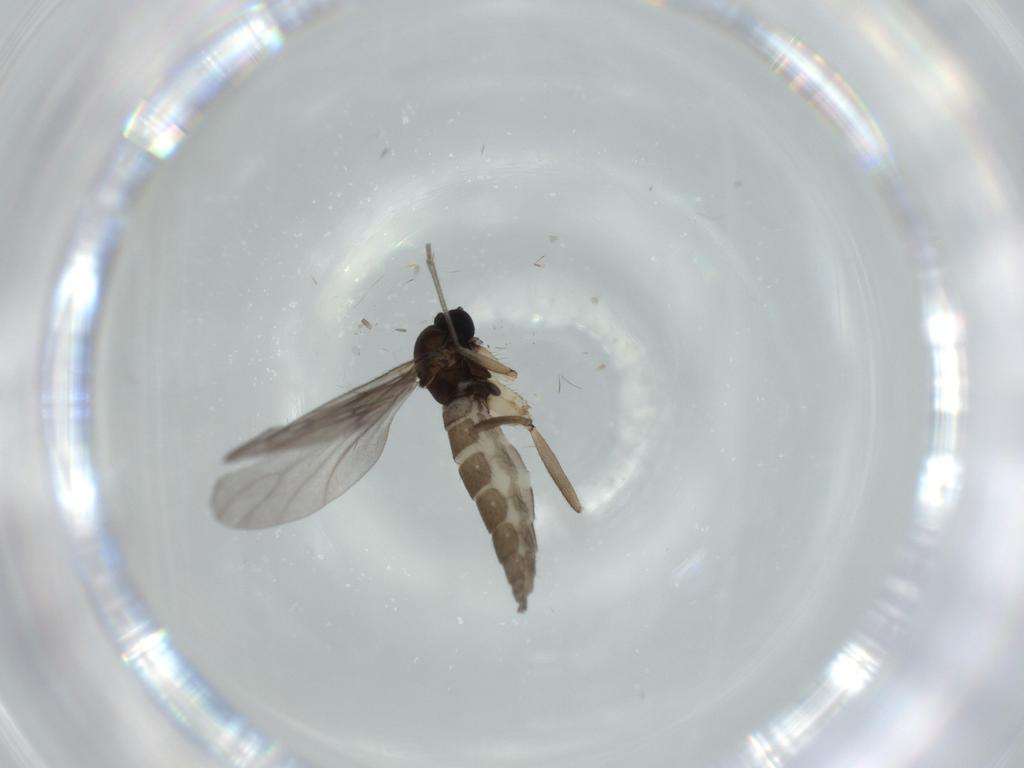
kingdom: Animalia
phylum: Arthropoda
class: Insecta
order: Diptera
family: Sciaridae
